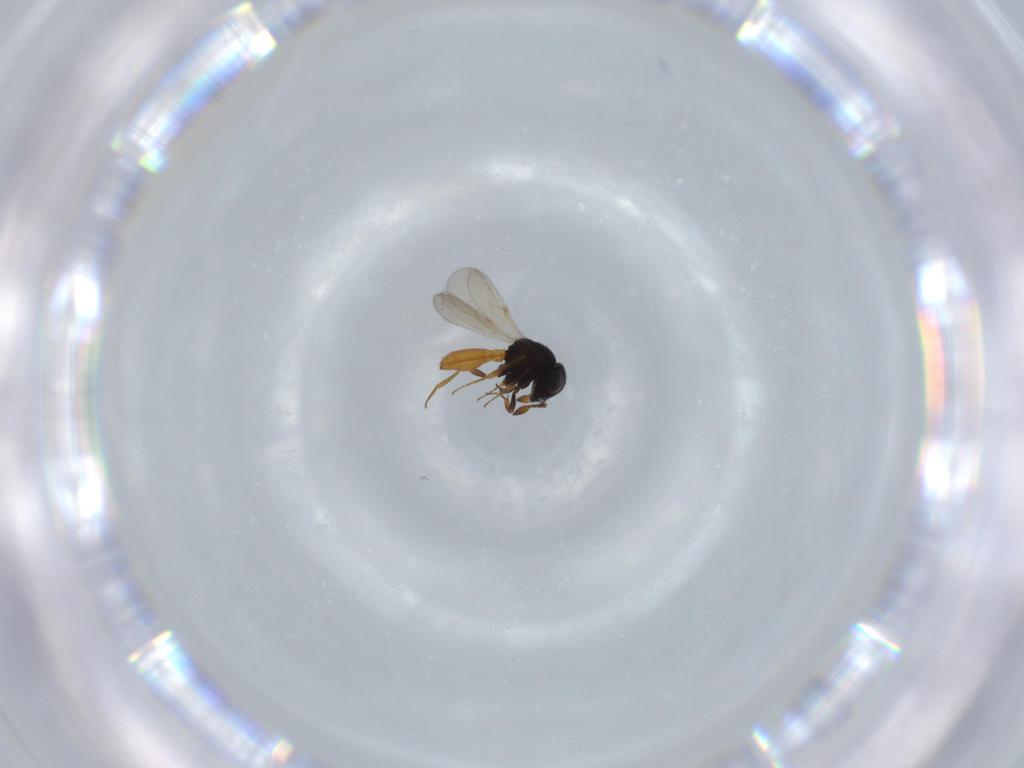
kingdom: Animalia
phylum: Arthropoda
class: Insecta
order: Hymenoptera
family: Scelionidae
